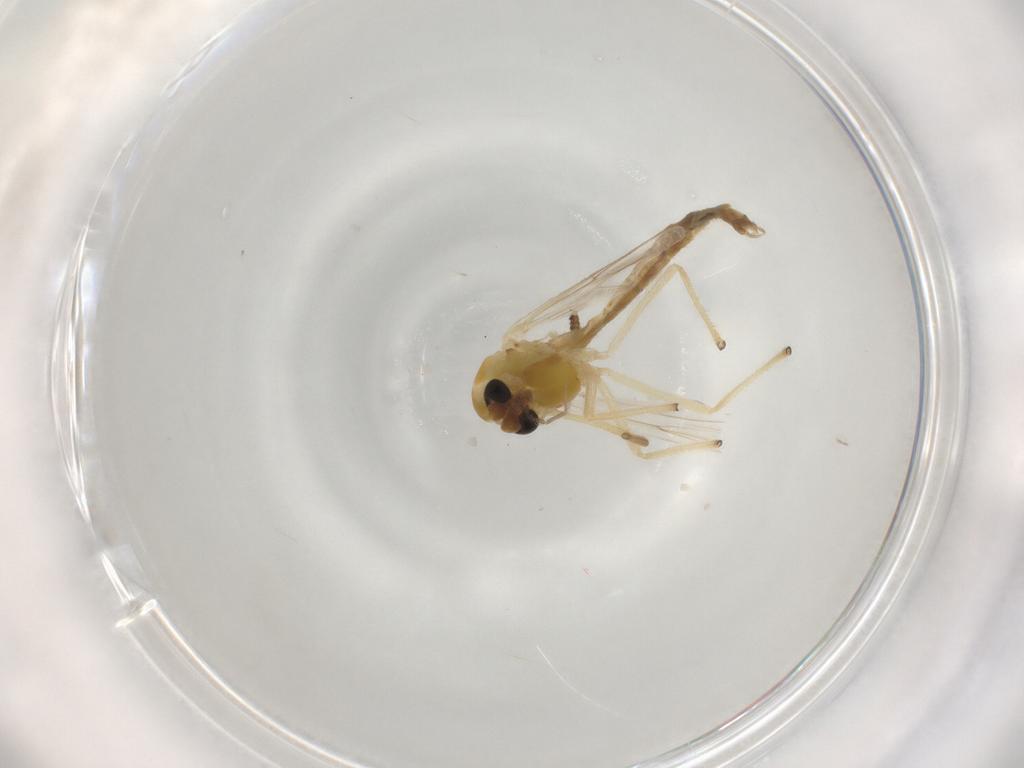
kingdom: Animalia
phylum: Arthropoda
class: Insecta
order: Diptera
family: Chironomidae
